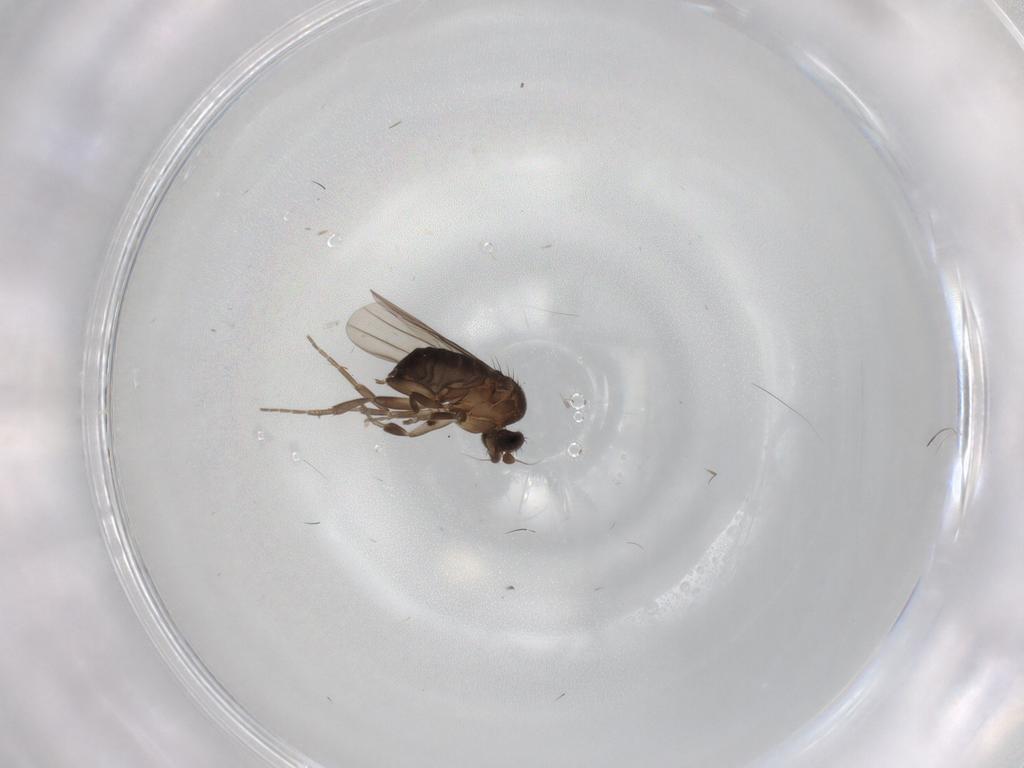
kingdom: Animalia
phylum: Arthropoda
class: Insecta
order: Diptera
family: Phoridae
